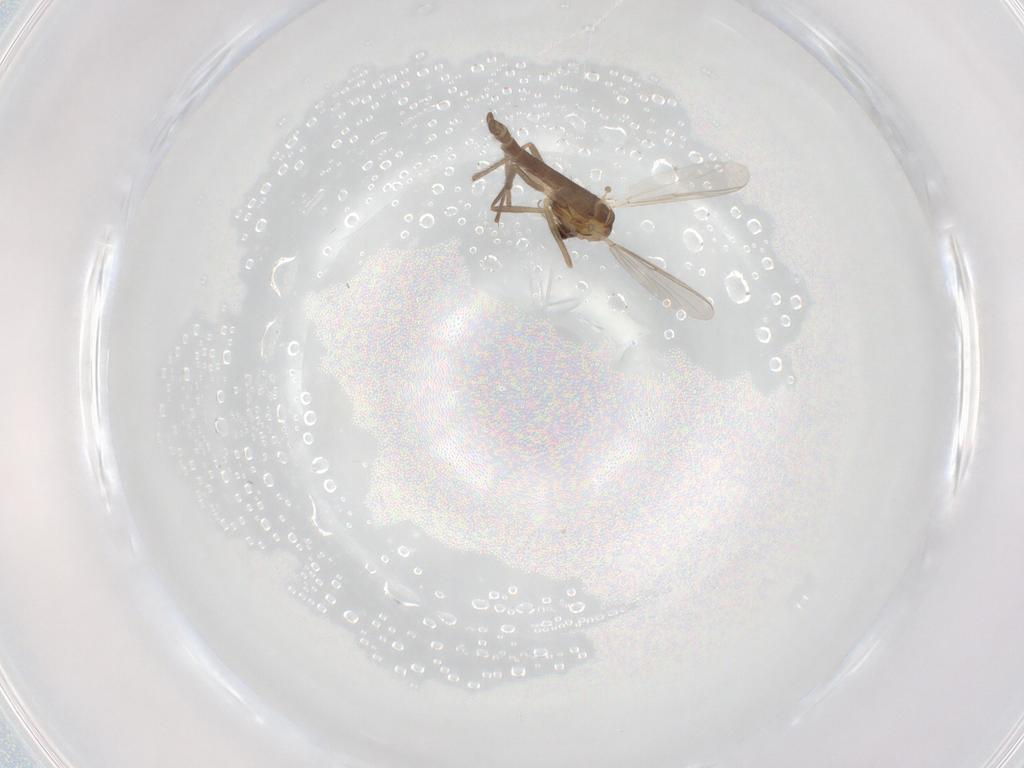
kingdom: Animalia
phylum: Arthropoda
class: Insecta
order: Diptera
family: Chironomidae
